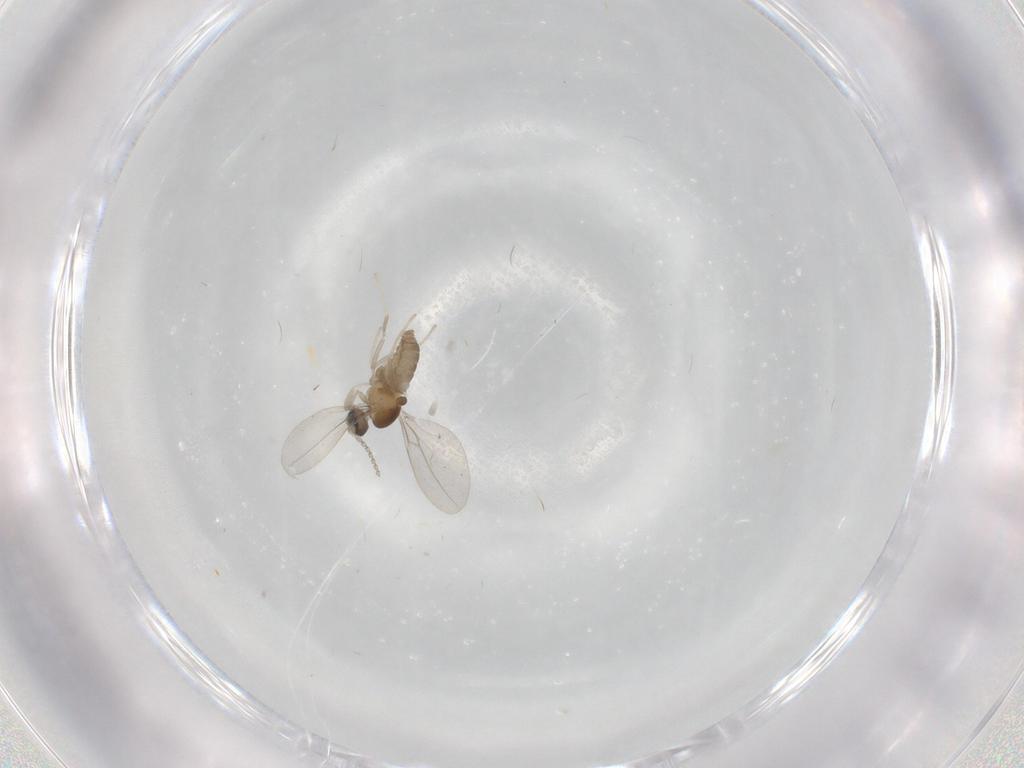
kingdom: Animalia
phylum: Arthropoda
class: Insecta
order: Diptera
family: Cecidomyiidae
